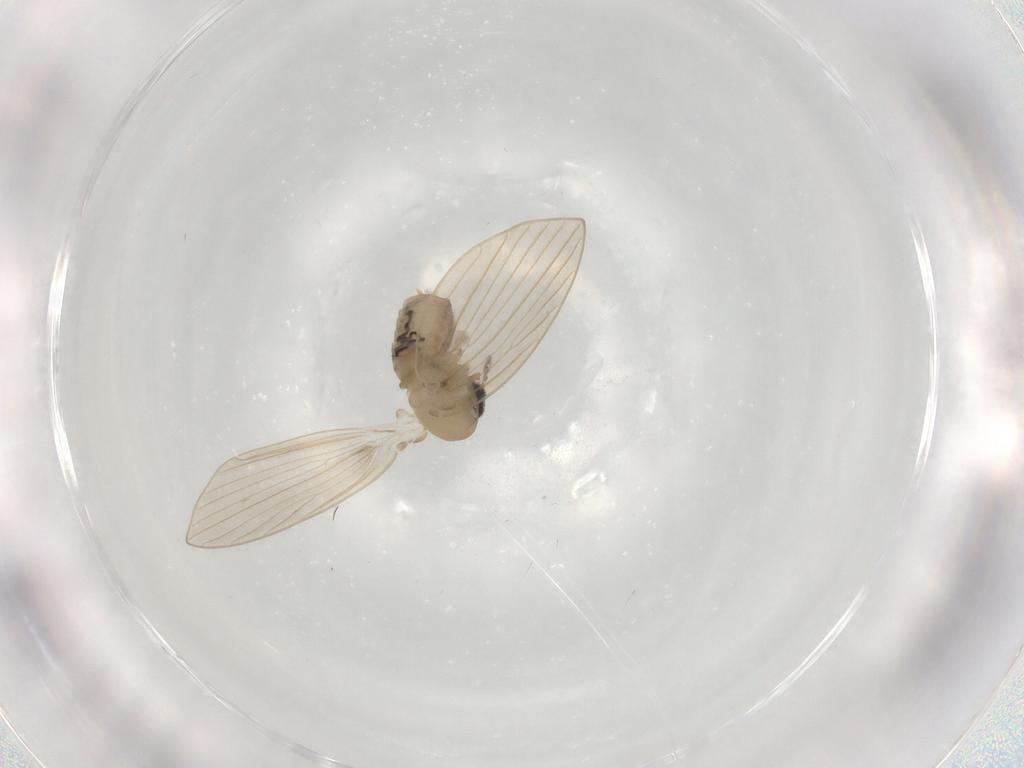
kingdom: Animalia
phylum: Arthropoda
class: Insecta
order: Diptera
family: Psychodidae
